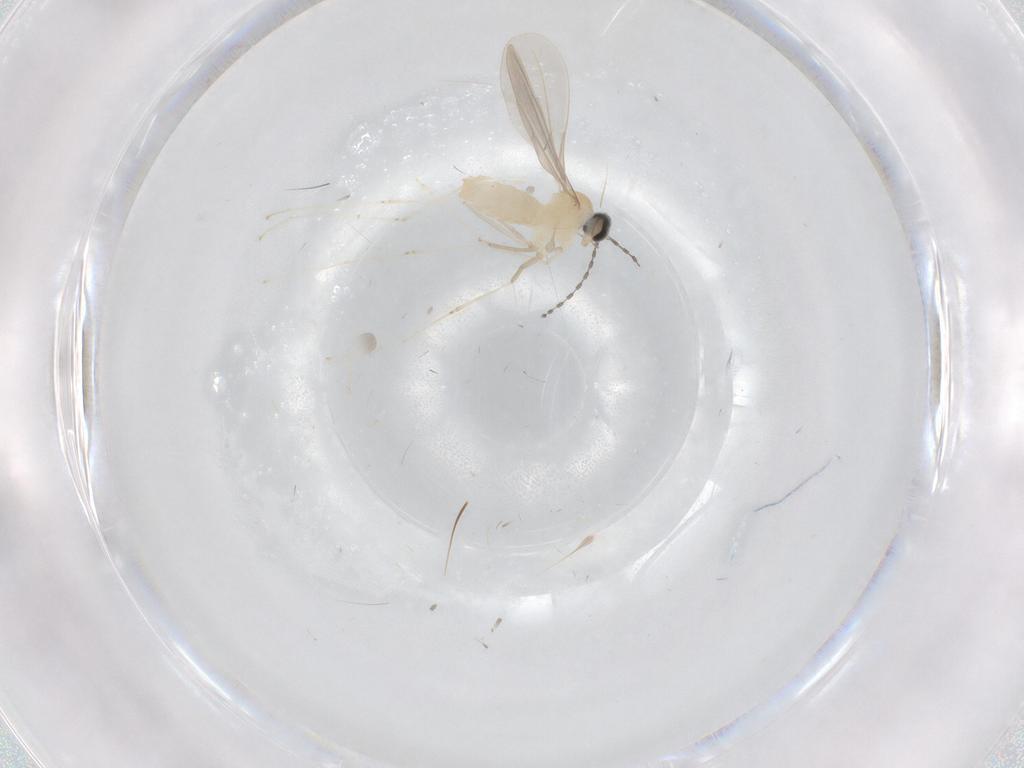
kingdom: Animalia
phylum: Arthropoda
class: Insecta
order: Diptera
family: Cecidomyiidae
